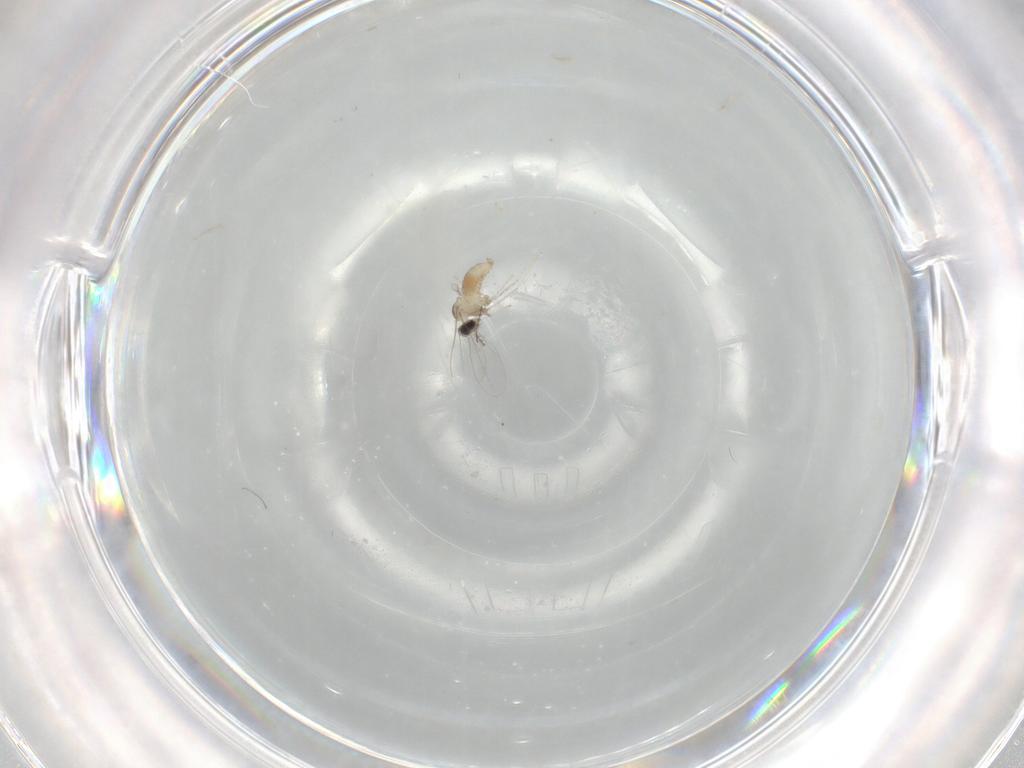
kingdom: Animalia
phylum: Arthropoda
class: Insecta
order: Diptera
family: Cecidomyiidae
